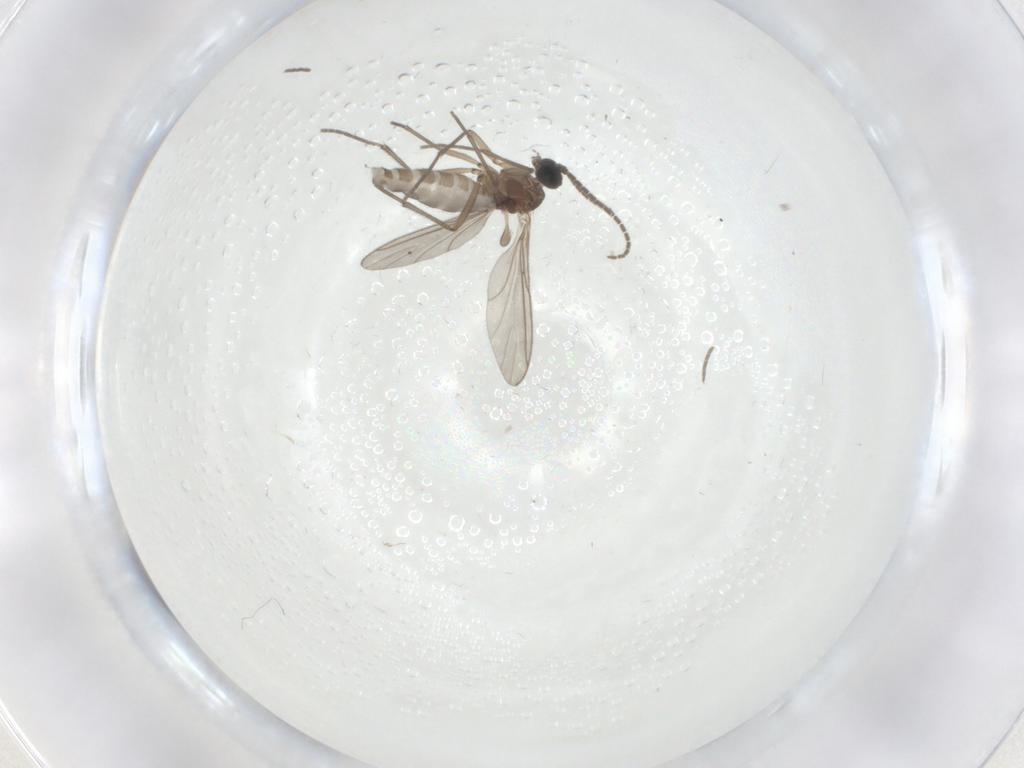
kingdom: Animalia
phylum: Arthropoda
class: Insecta
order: Diptera
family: Sciaridae
